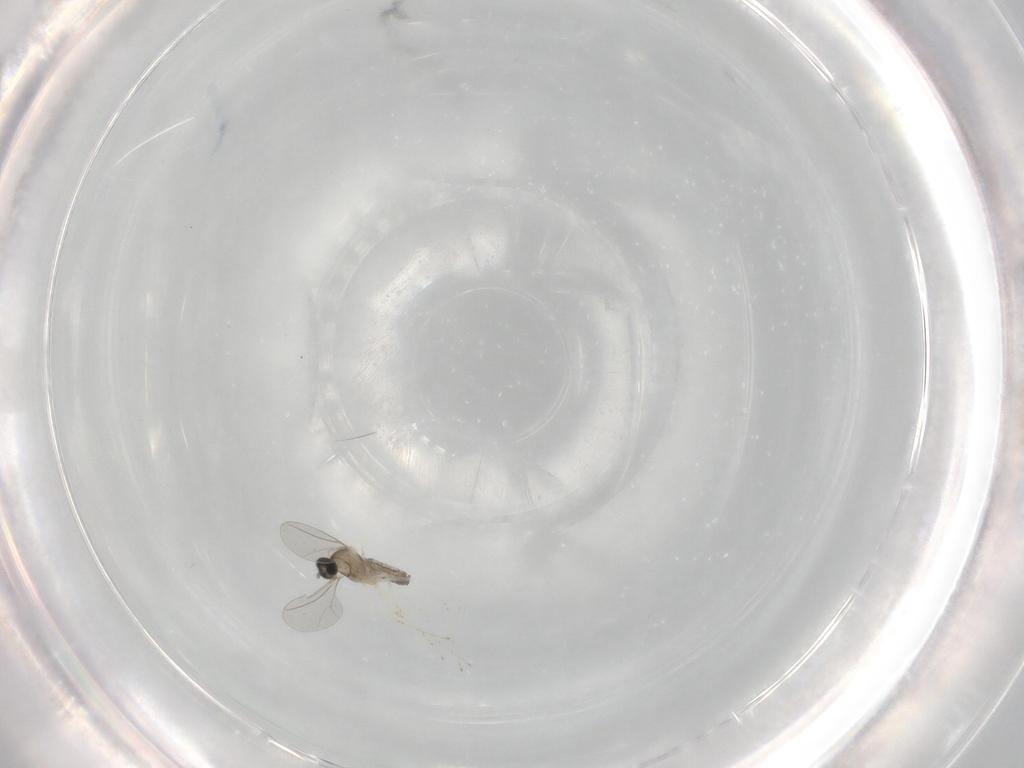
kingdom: Animalia
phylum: Arthropoda
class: Insecta
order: Diptera
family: Cecidomyiidae
